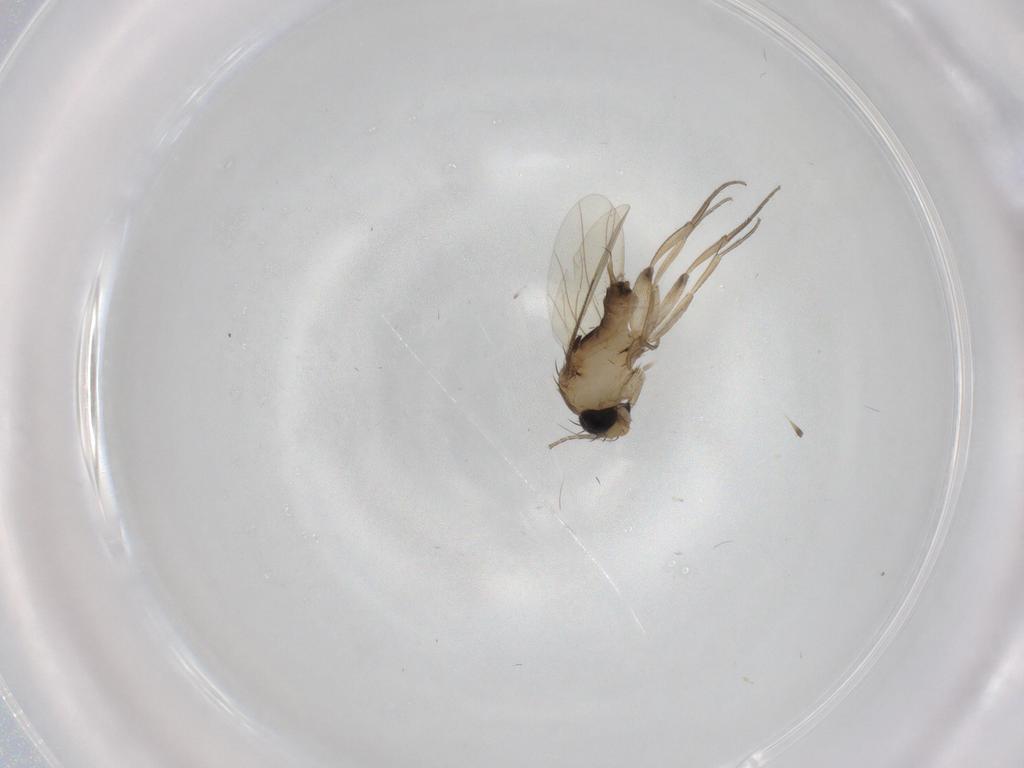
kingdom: Animalia
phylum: Arthropoda
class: Insecta
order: Diptera
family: Phoridae
